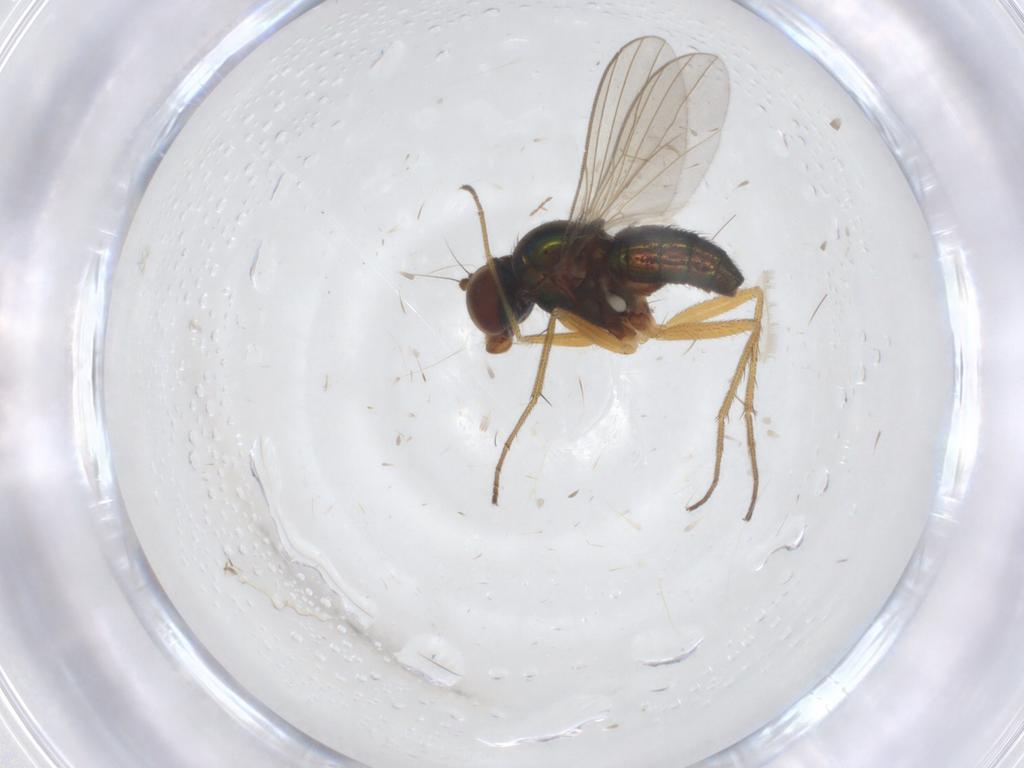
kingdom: Animalia
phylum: Arthropoda
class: Insecta
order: Diptera
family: Dolichopodidae
